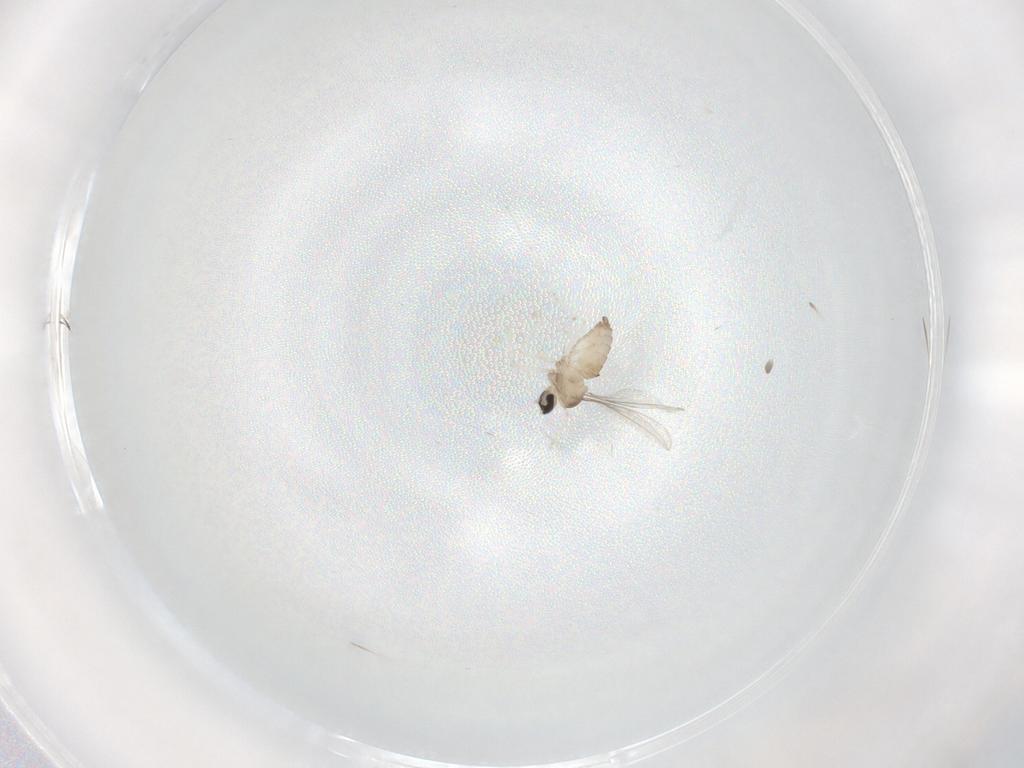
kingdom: Animalia
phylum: Arthropoda
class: Insecta
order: Diptera
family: Cecidomyiidae
